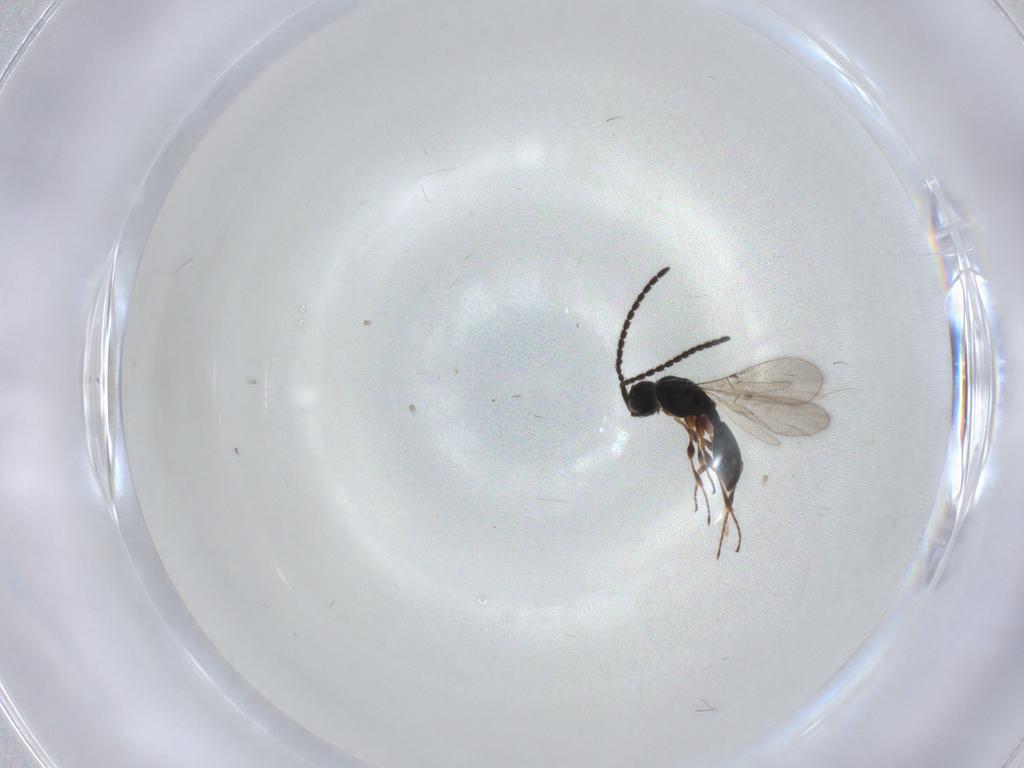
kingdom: Animalia
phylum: Arthropoda
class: Insecta
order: Hymenoptera
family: Diapriidae
